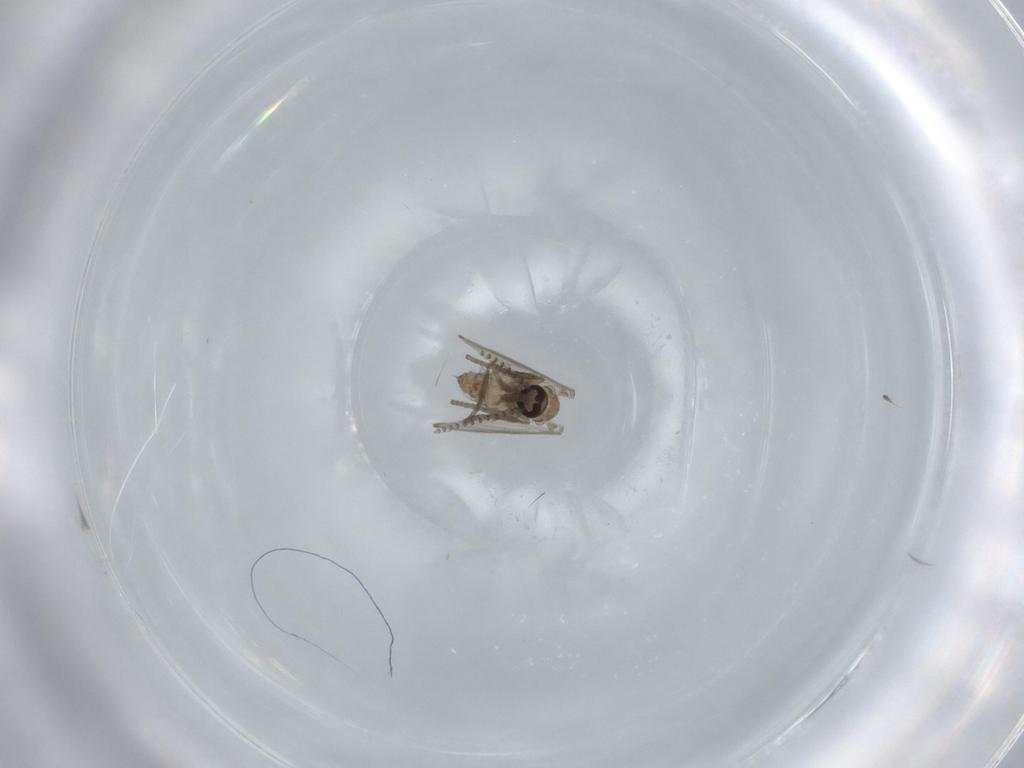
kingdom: Animalia
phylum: Arthropoda
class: Insecta
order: Diptera
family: Psychodidae
